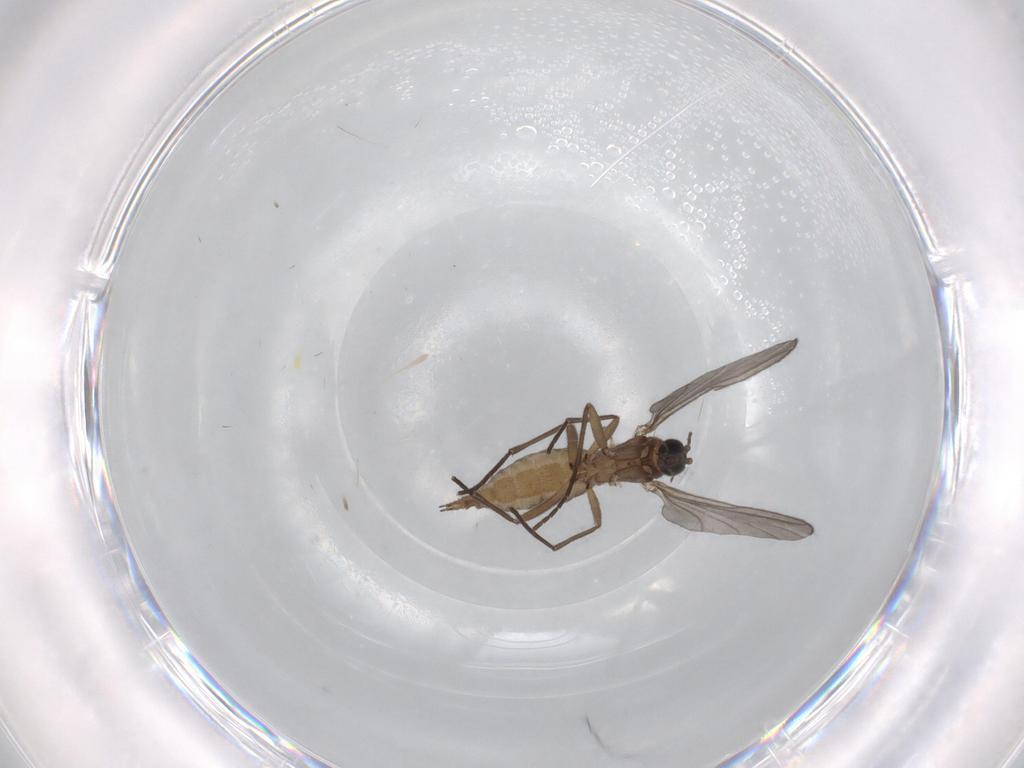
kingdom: Animalia
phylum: Arthropoda
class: Insecta
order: Diptera
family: Sciaridae
